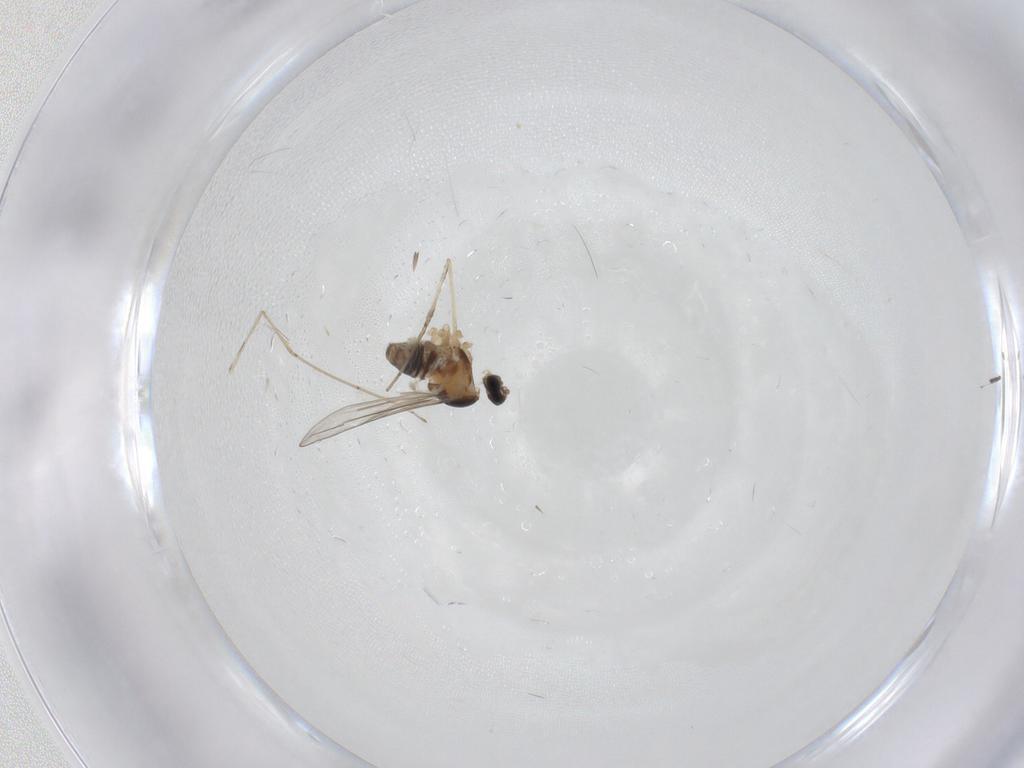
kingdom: Animalia
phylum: Arthropoda
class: Insecta
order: Diptera
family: Cecidomyiidae
